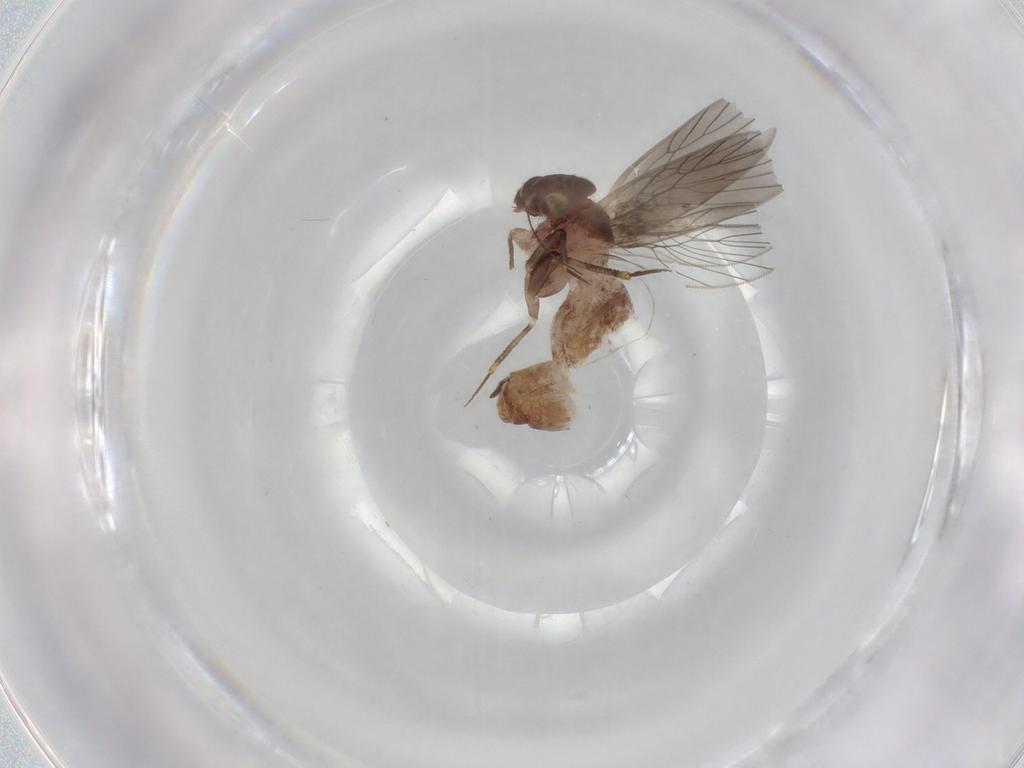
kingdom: Animalia
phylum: Arthropoda
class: Insecta
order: Psocodea
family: Lepidopsocidae
